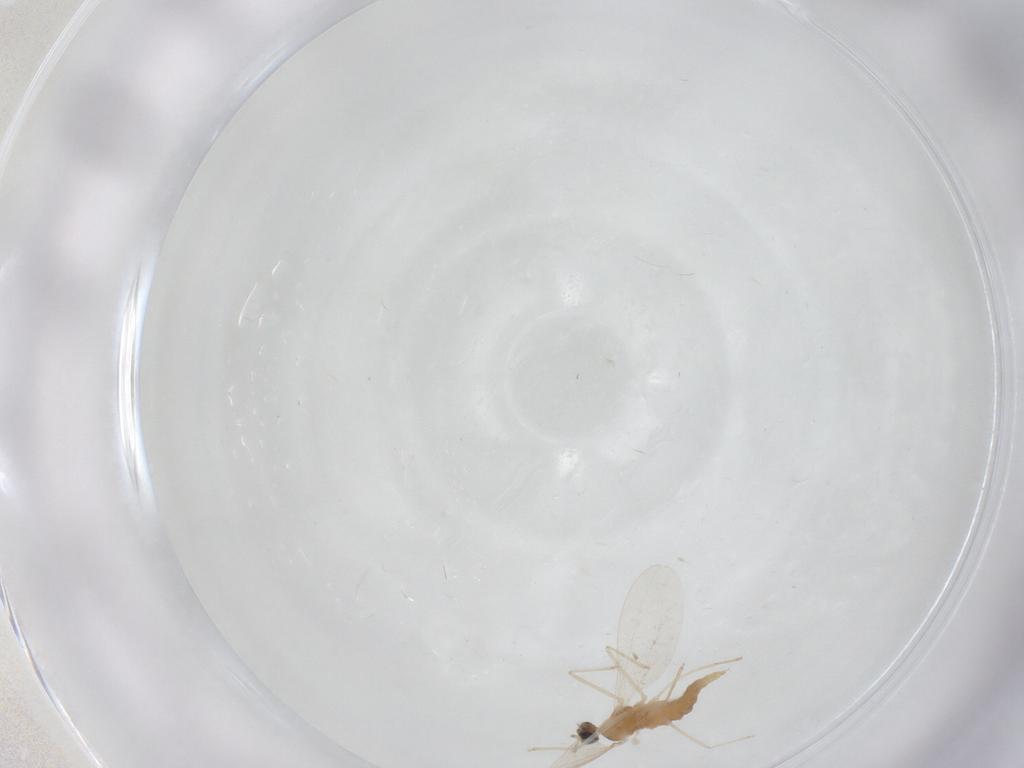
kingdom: Animalia
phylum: Arthropoda
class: Insecta
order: Diptera
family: Cecidomyiidae
